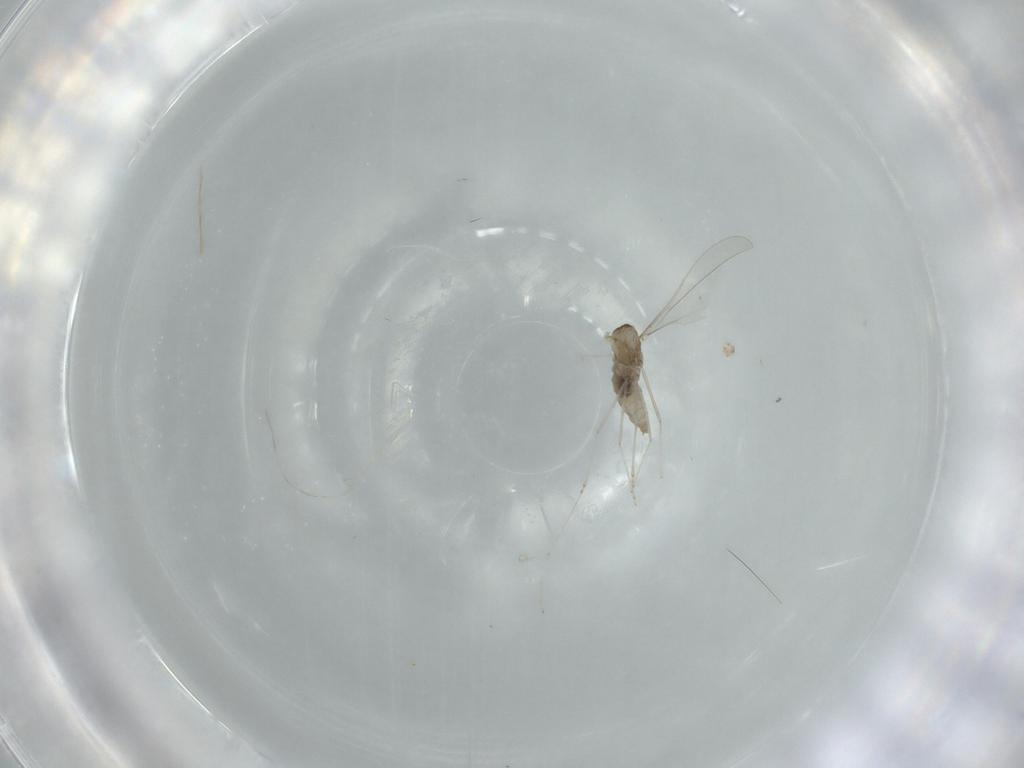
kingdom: Animalia
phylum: Arthropoda
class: Insecta
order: Diptera
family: Cecidomyiidae
